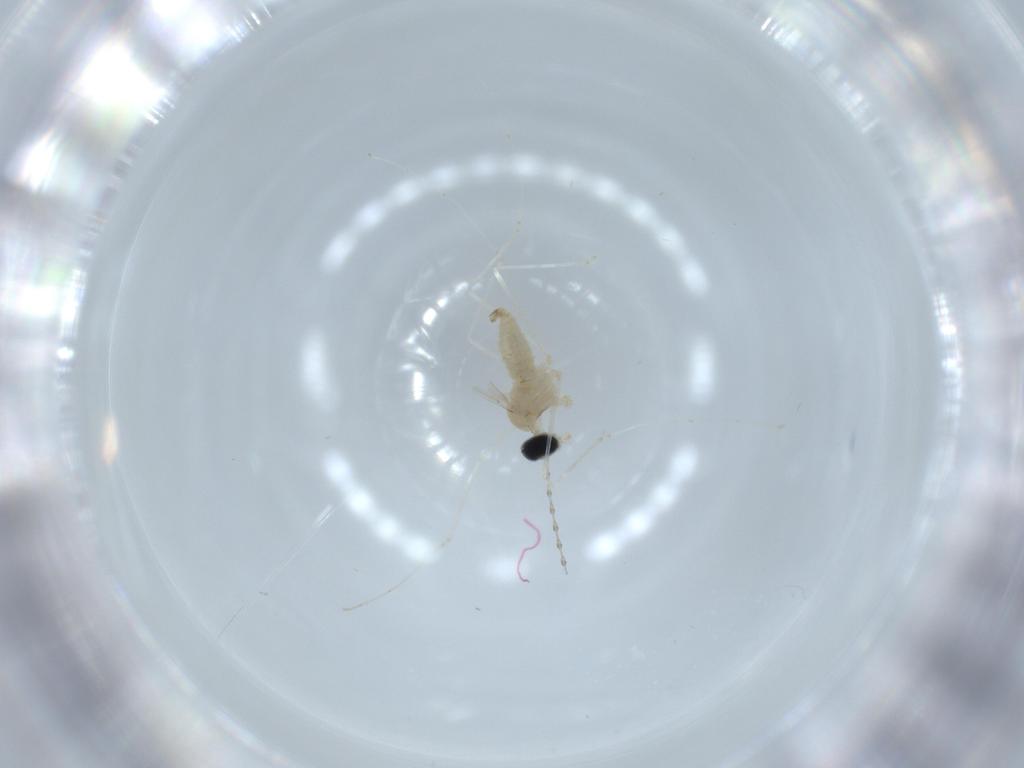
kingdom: Animalia
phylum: Arthropoda
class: Insecta
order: Diptera
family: Cecidomyiidae
